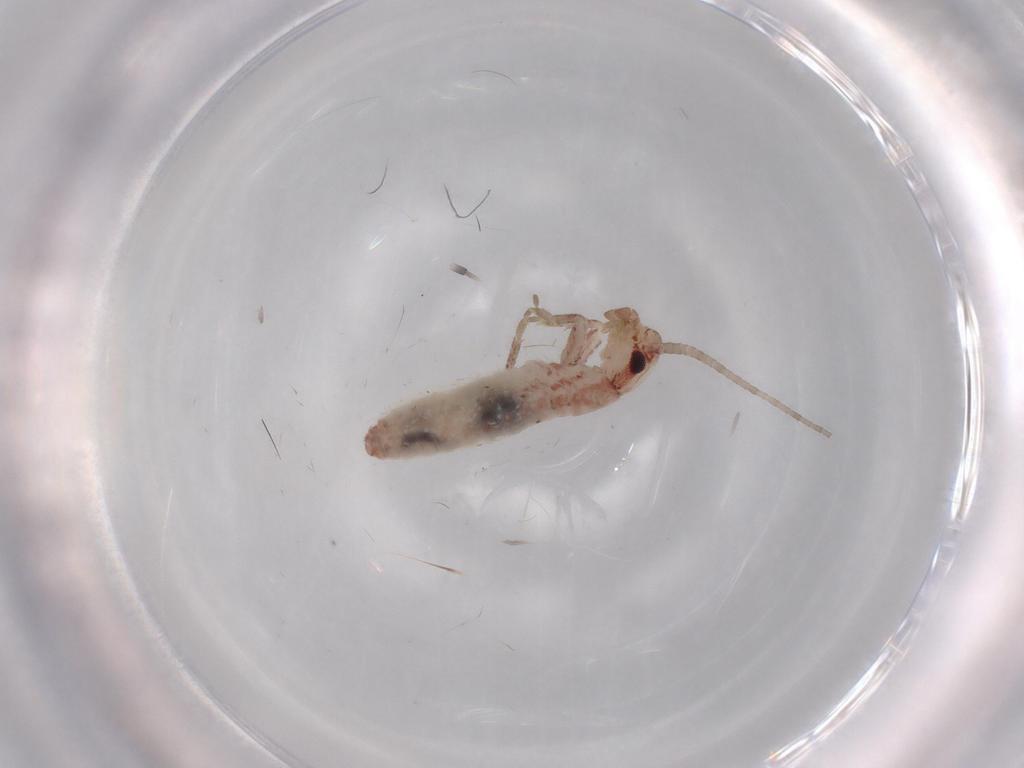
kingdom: Animalia
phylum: Arthropoda
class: Insecta
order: Orthoptera
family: Mogoplistidae
